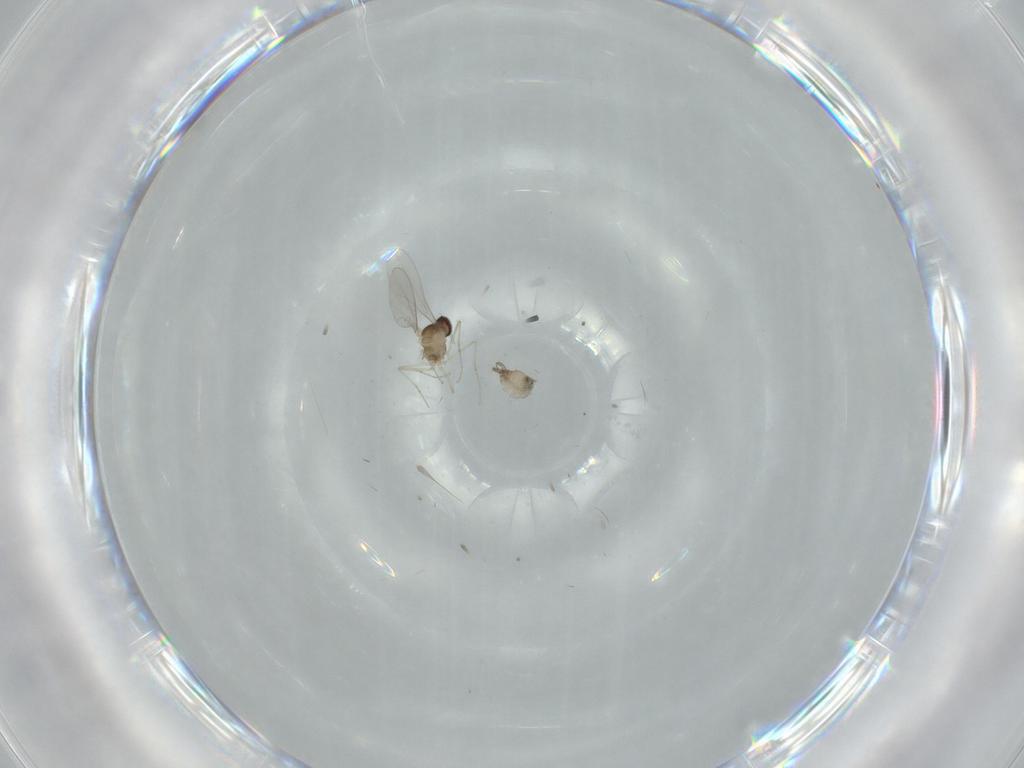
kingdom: Animalia
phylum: Arthropoda
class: Insecta
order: Diptera
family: Cecidomyiidae
